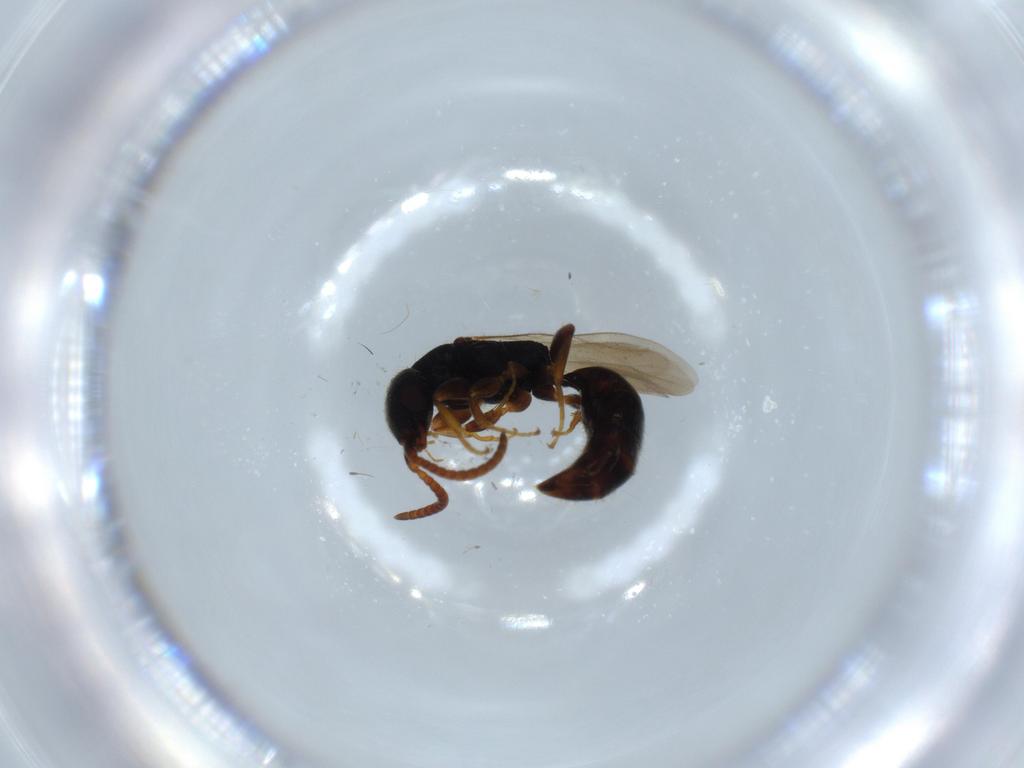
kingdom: Animalia
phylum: Arthropoda
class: Insecta
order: Hymenoptera
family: Bethylidae
